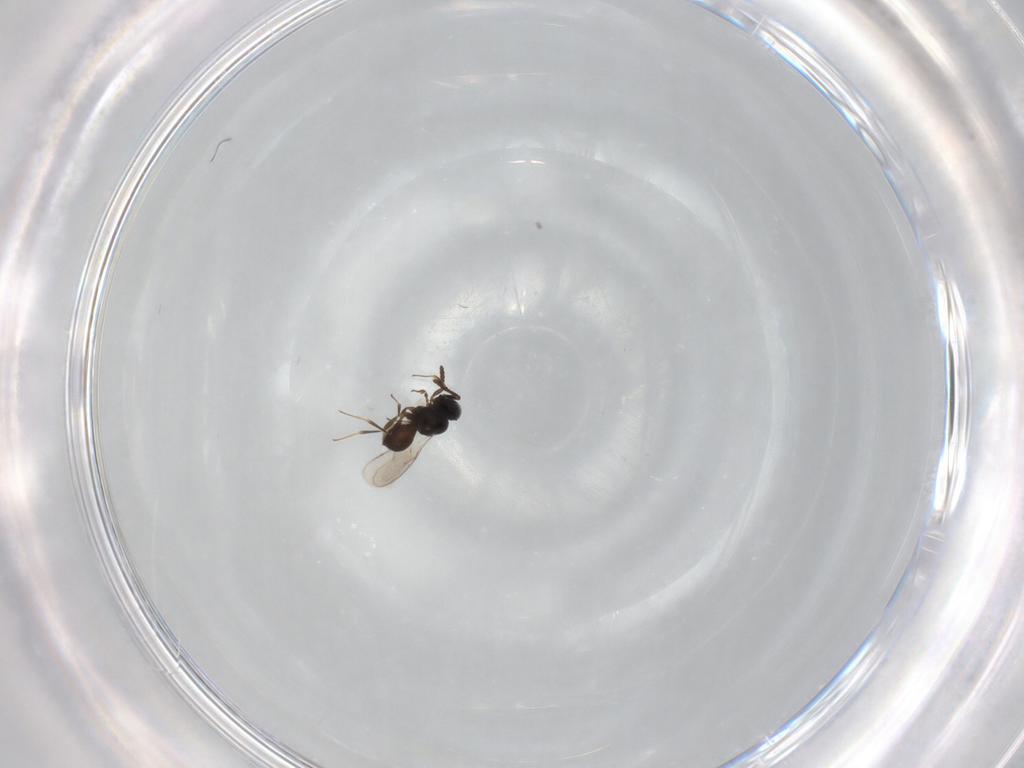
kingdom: Animalia
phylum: Arthropoda
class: Insecta
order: Hymenoptera
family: Scelionidae
